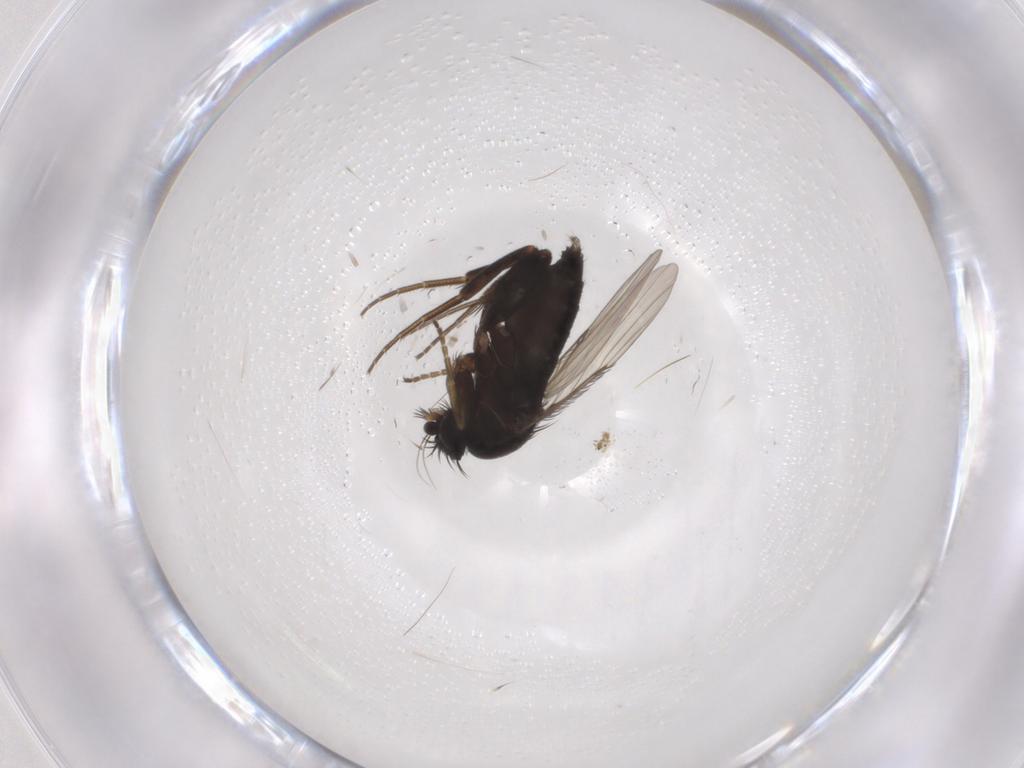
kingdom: Animalia
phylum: Arthropoda
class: Insecta
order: Diptera
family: Phoridae
